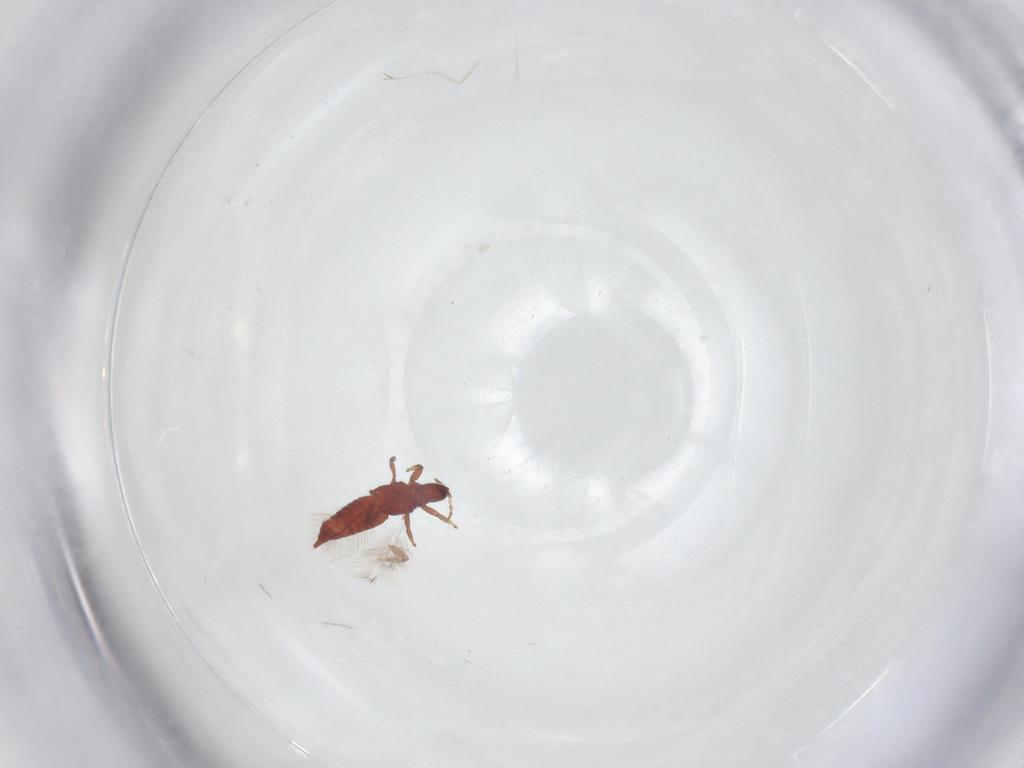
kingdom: Animalia
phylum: Arthropoda
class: Insecta
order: Thysanoptera
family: Phlaeothripidae
